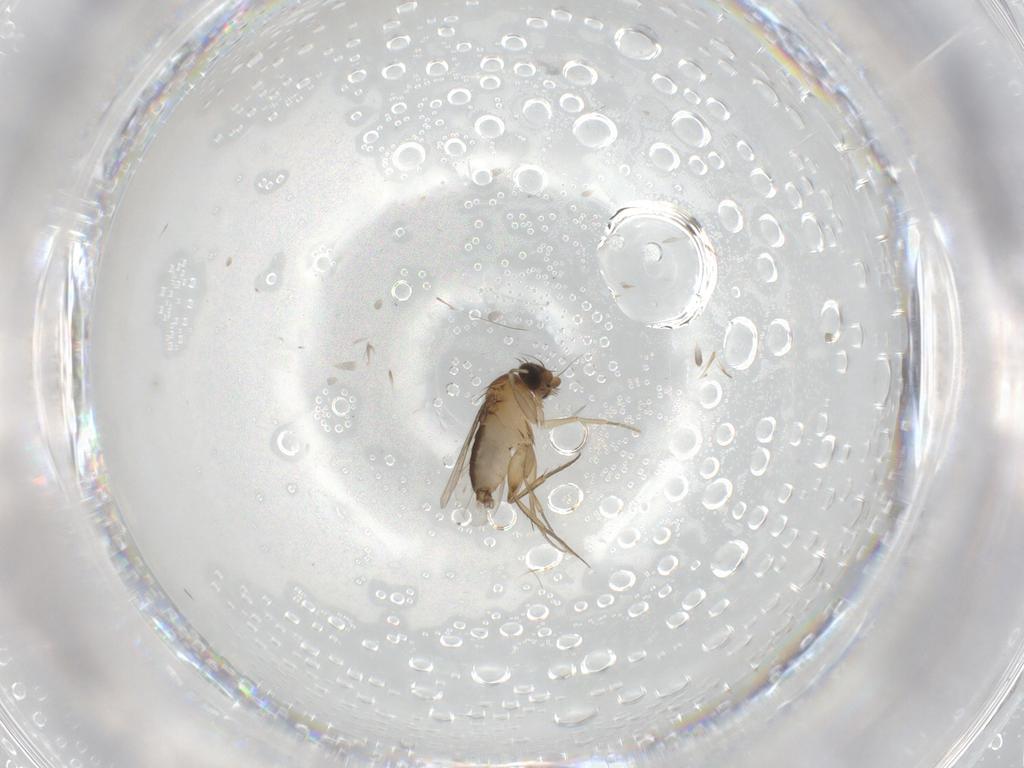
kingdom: Animalia
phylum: Arthropoda
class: Insecta
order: Diptera
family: Phoridae
